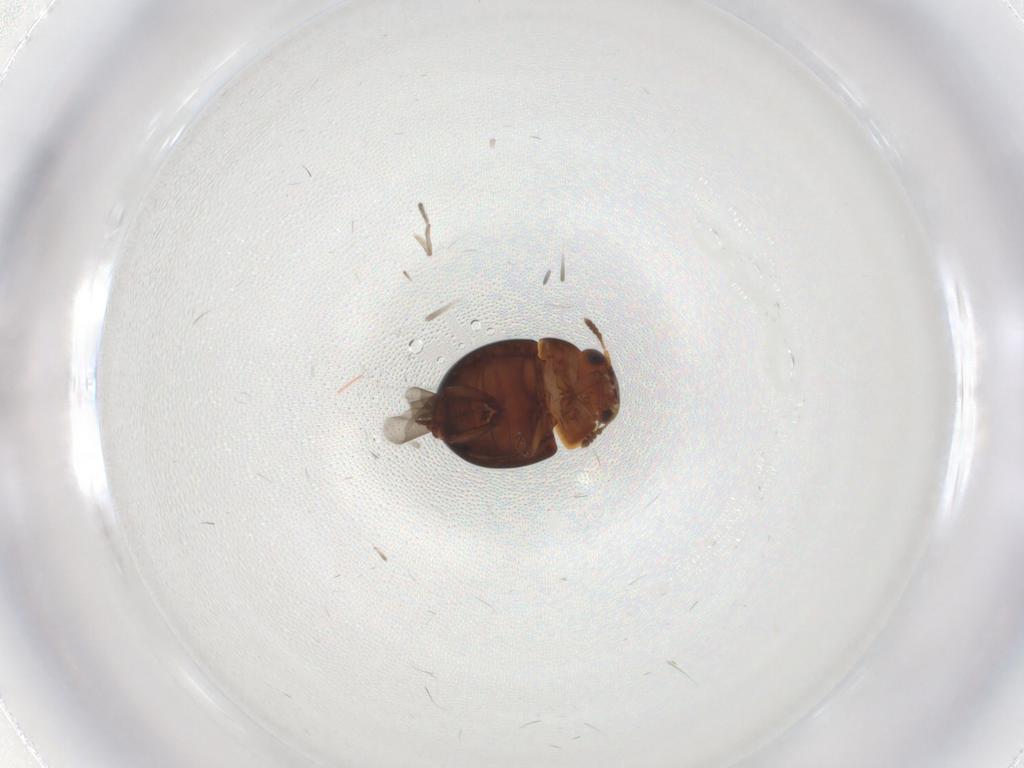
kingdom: Animalia
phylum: Arthropoda
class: Insecta
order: Coleoptera
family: Leiodidae
